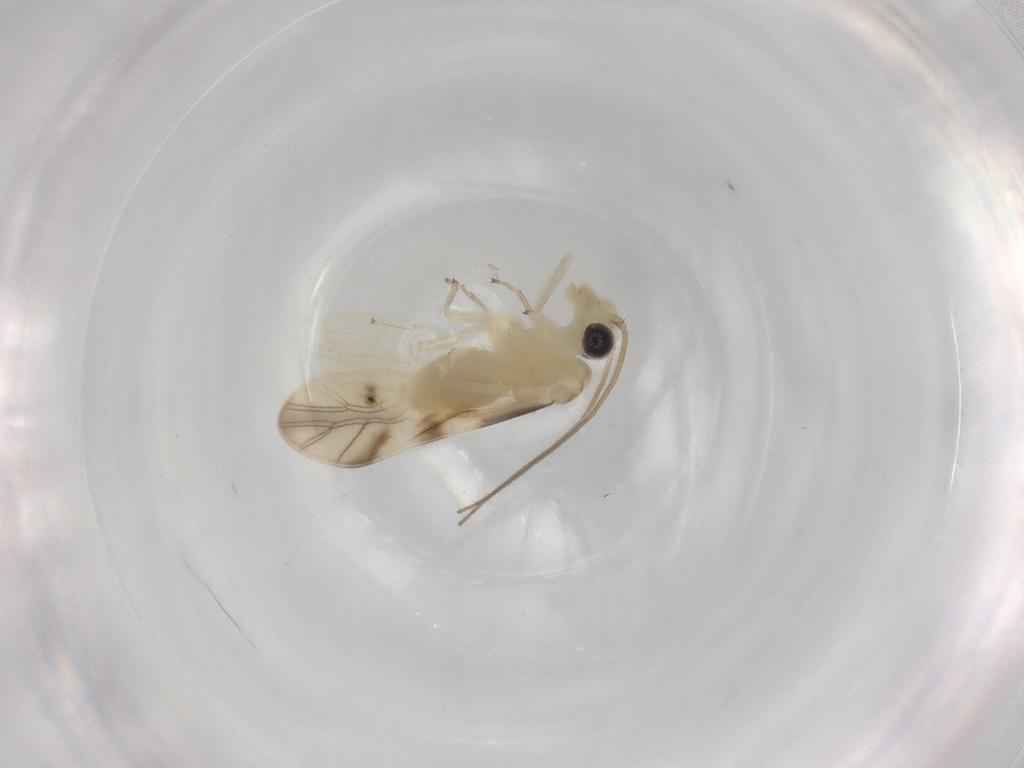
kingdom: Animalia
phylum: Arthropoda
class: Insecta
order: Psocodea
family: Caeciliusidae
